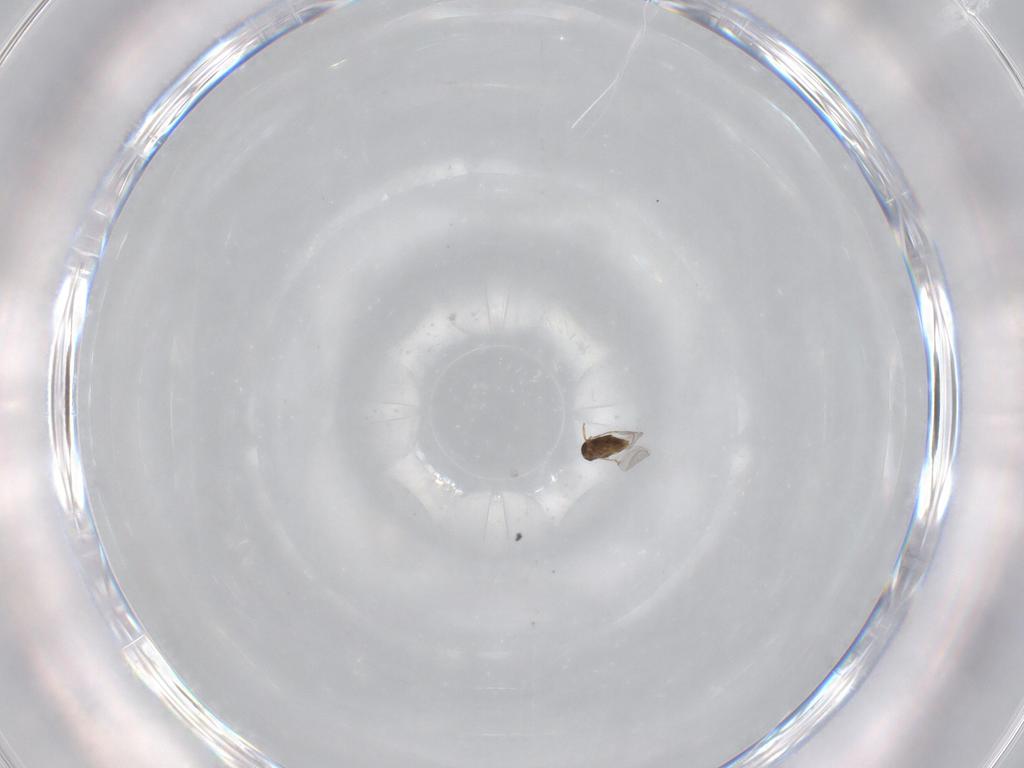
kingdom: Animalia
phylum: Arthropoda
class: Insecta
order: Hymenoptera
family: Encyrtidae
